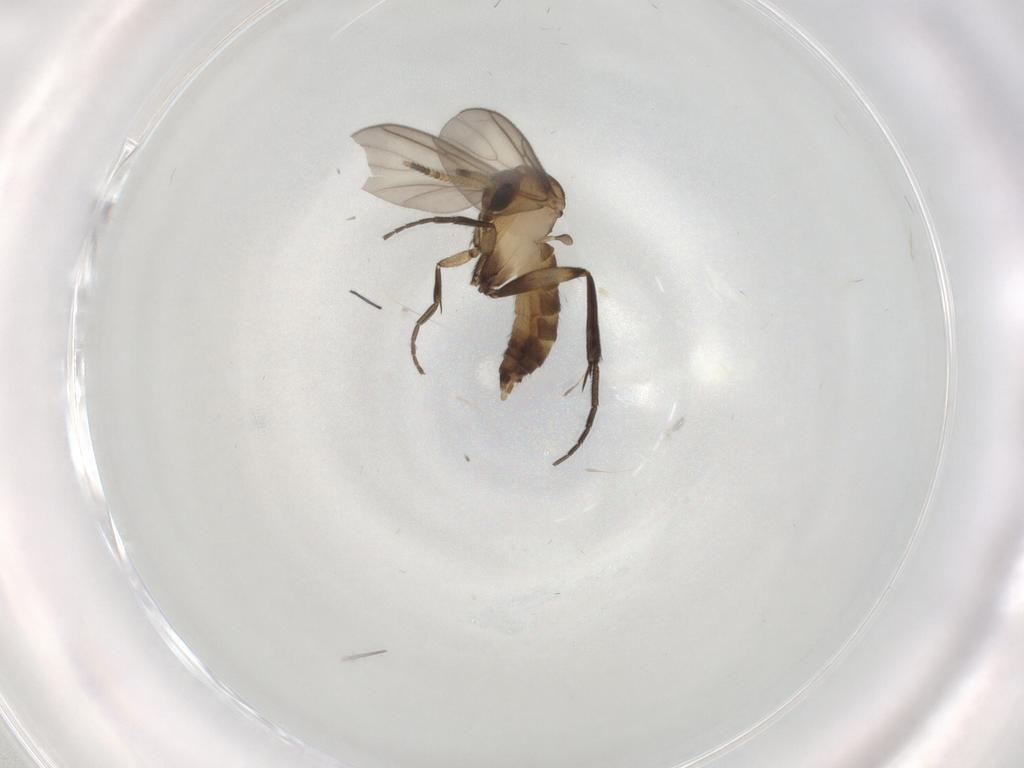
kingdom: Animalia
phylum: Arthropoda
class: Insecta
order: Diptera
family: Mycetophilidae
